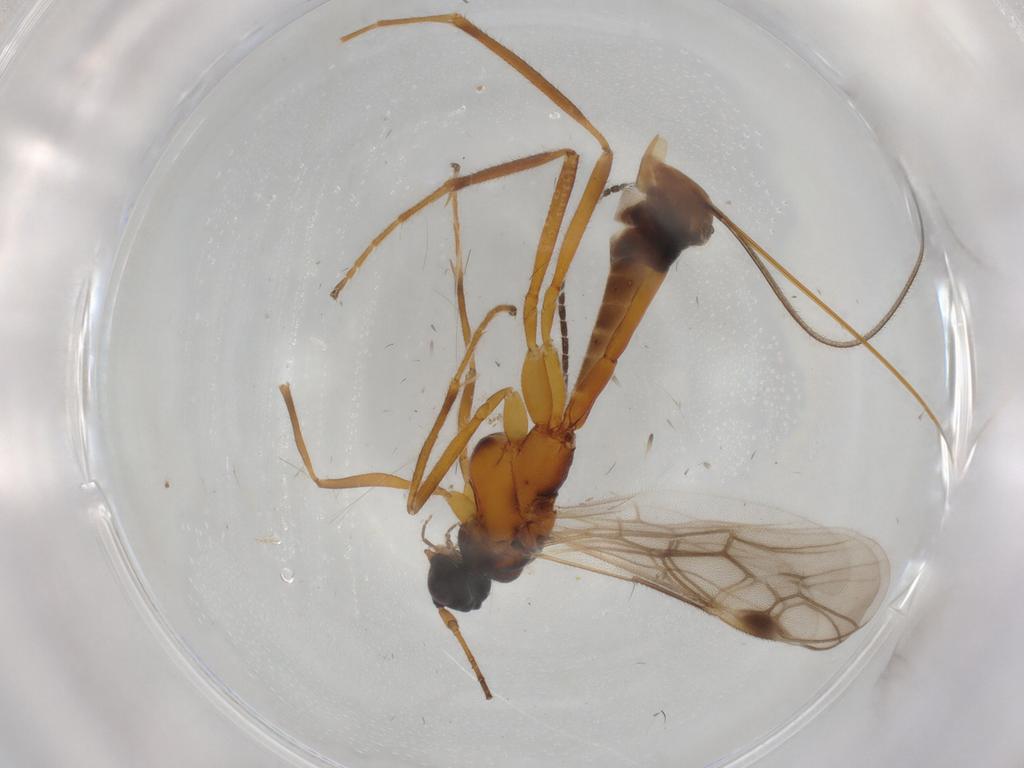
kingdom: Animalia
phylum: Arthropoda
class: Insecta
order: Hymenoptera
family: Braconidae
